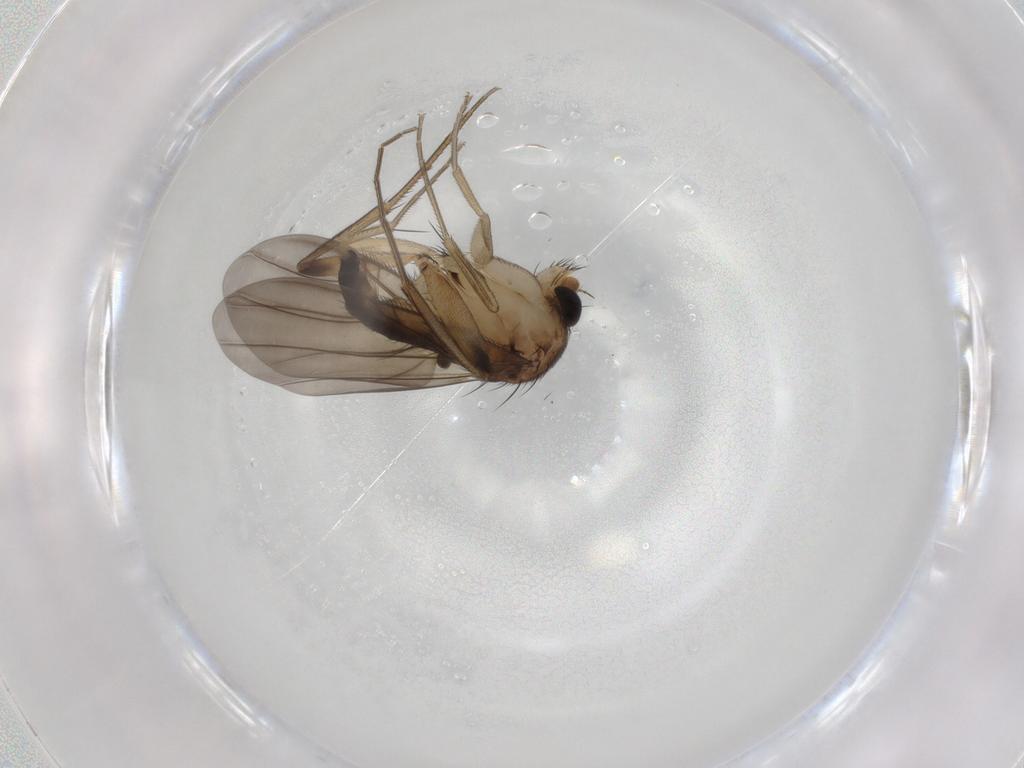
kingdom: Animalia
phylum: Arthropoda
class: Insecta
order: Diptera
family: Phoridae
